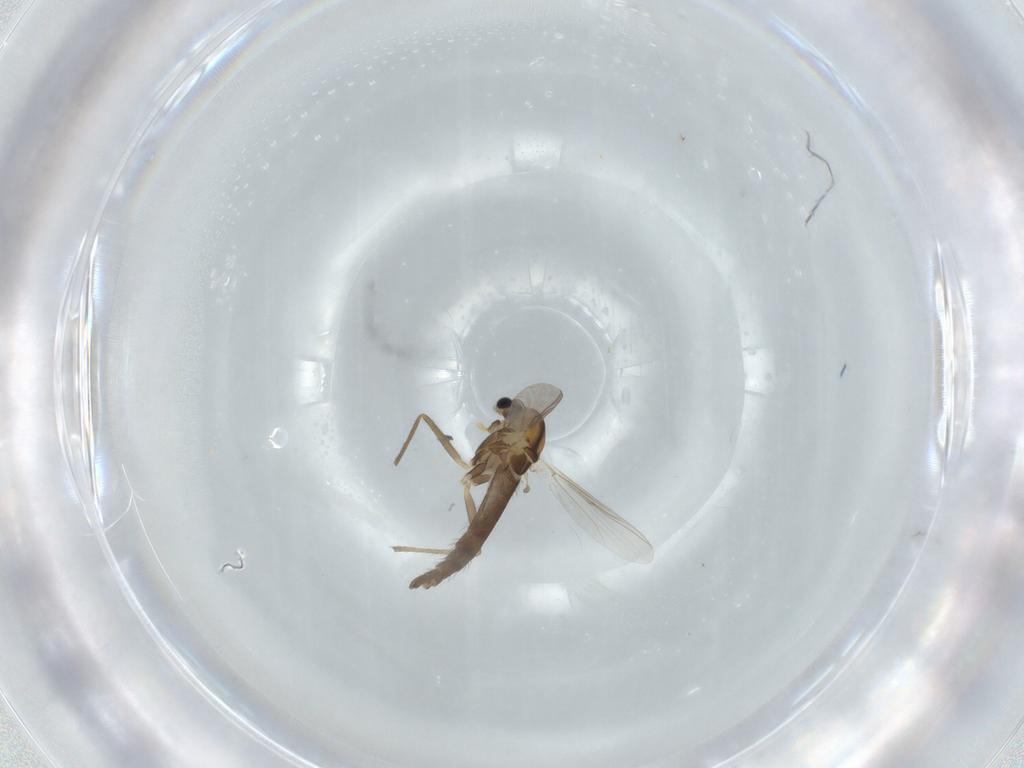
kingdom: Animalia
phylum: Arthropoda
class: Insecta
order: Diptera
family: Chironomidae
